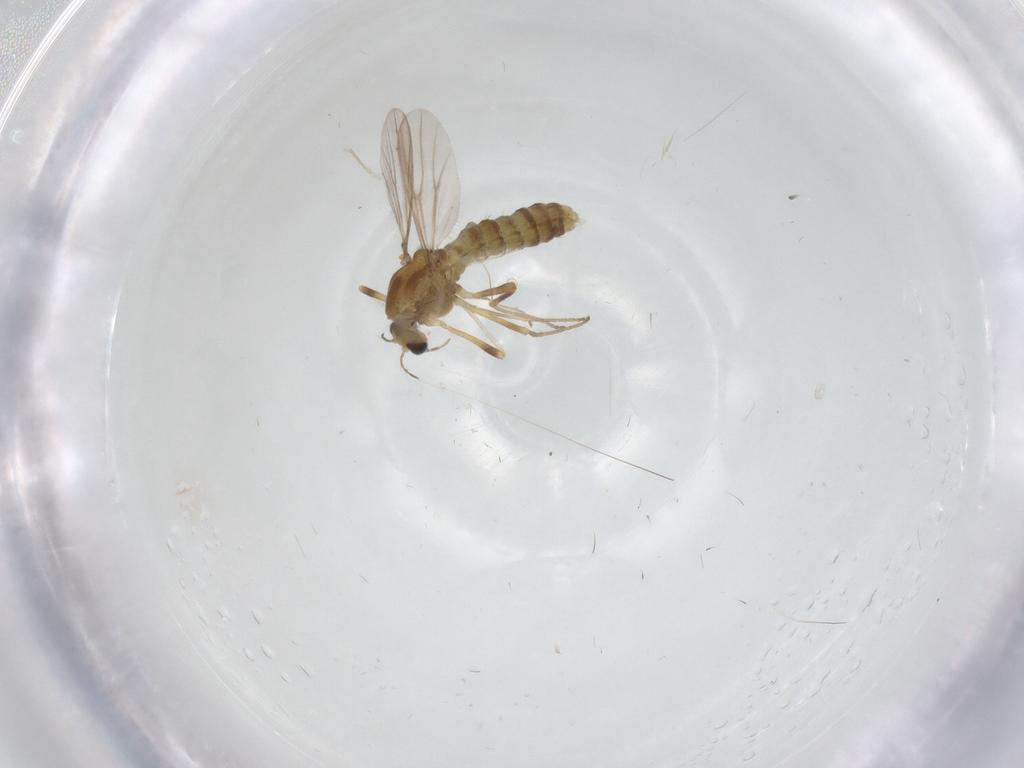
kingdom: Animalia
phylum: Arthropoda
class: Insecta
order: Diptera
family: Chironomidae
